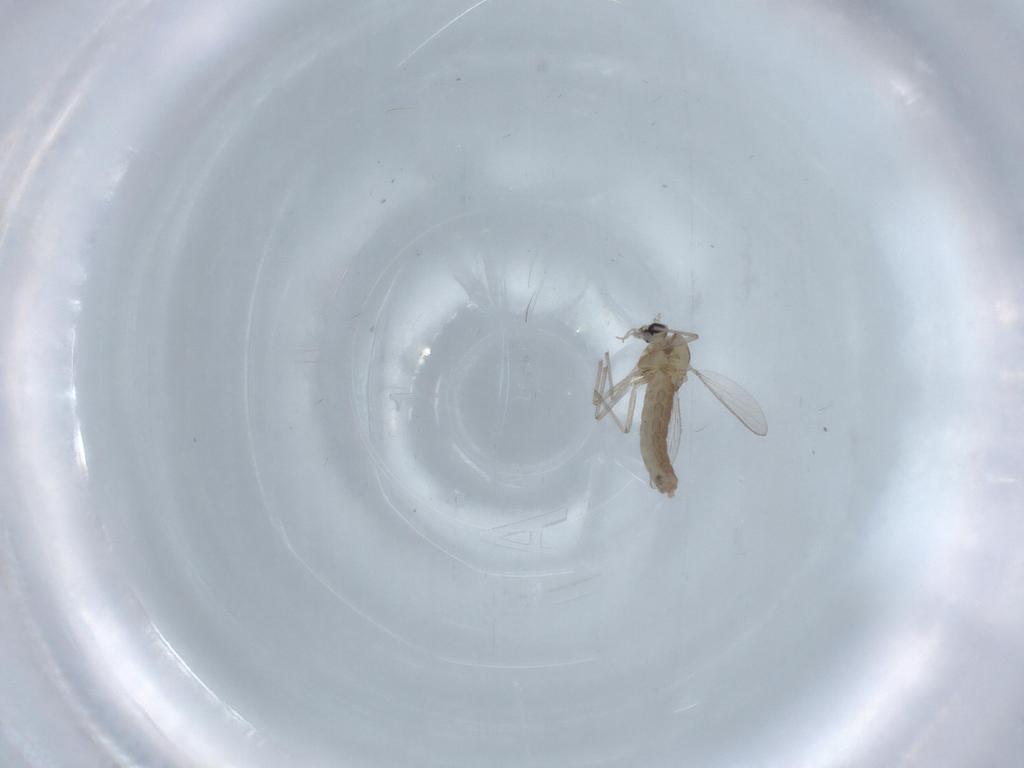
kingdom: Animalia
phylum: Arthropoda
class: Insecta
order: Diptera
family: Chironomidae
